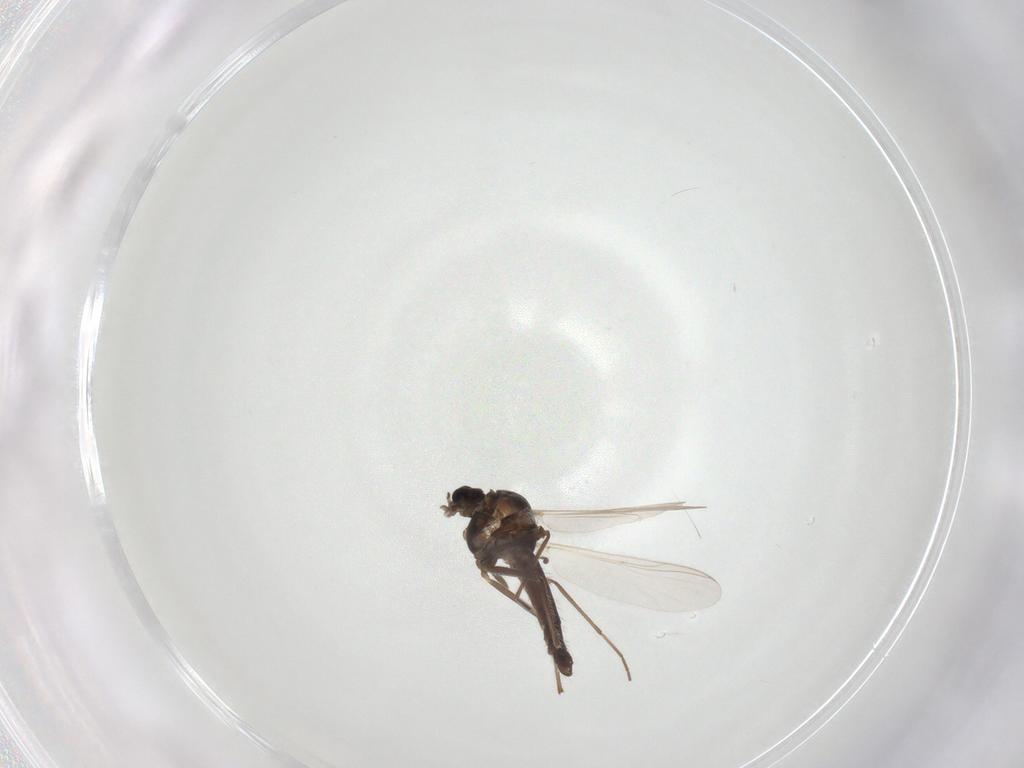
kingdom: Animalia
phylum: Arthropoda
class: Insecta
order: Diptera
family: Chironomidae
